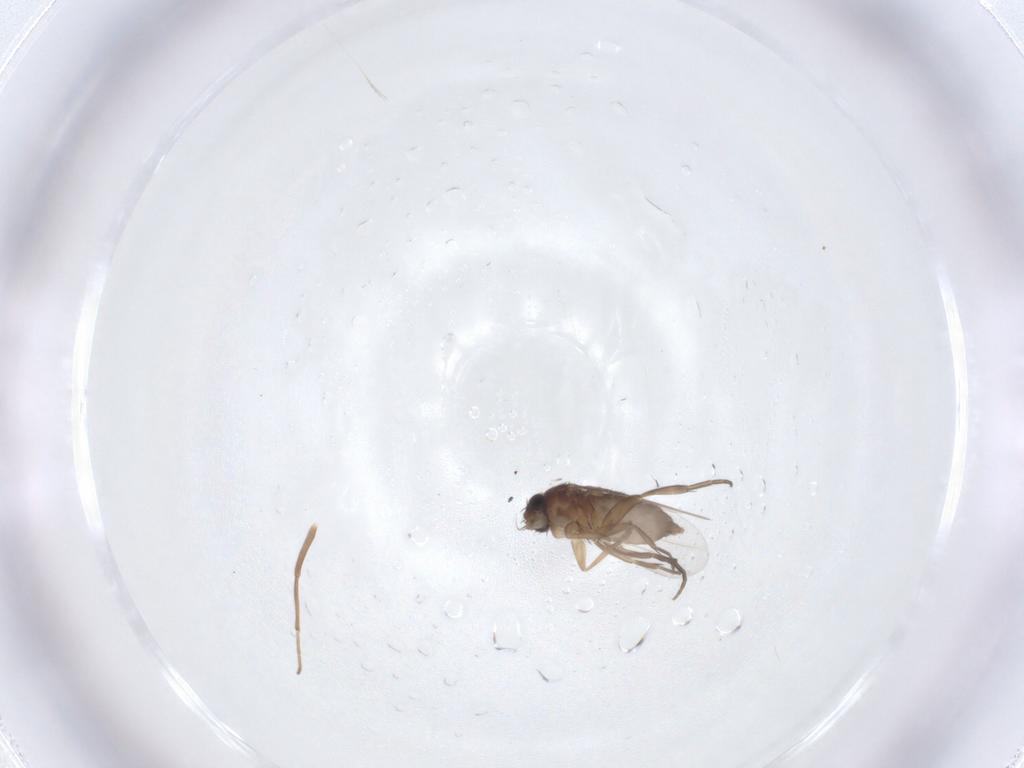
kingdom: Animalia
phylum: Arthropoda
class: Insecta
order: Diptera
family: Phoridae
